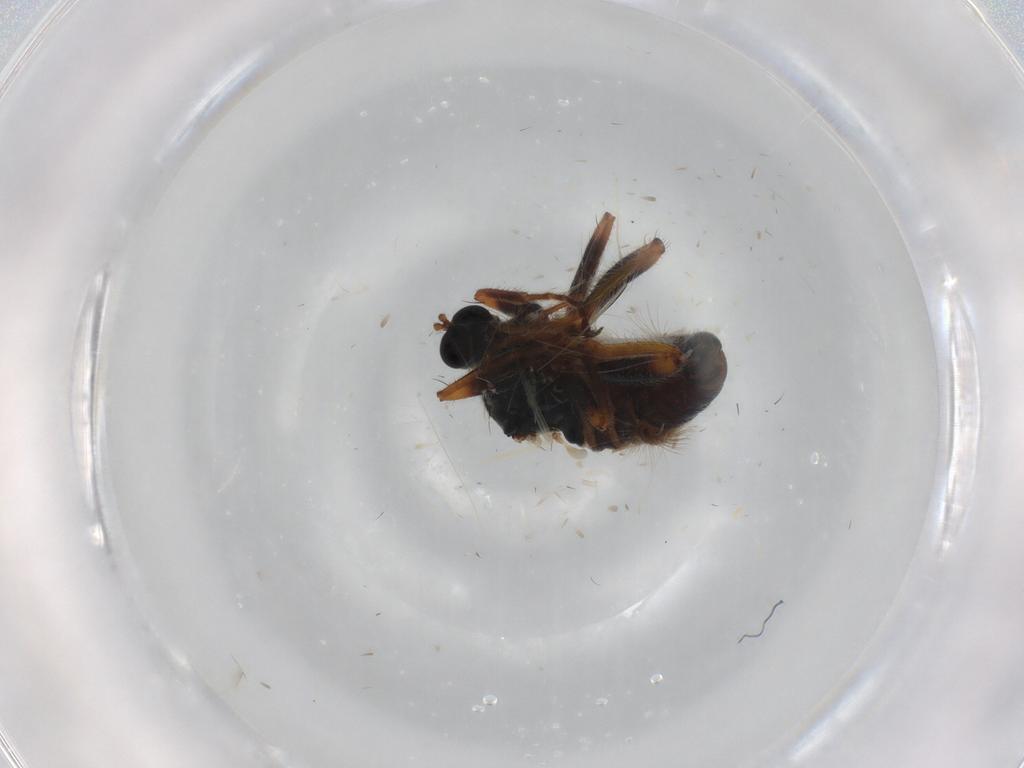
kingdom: Animalia
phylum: Arthropoda
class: Insecta
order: Diptera
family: Hybotidae
